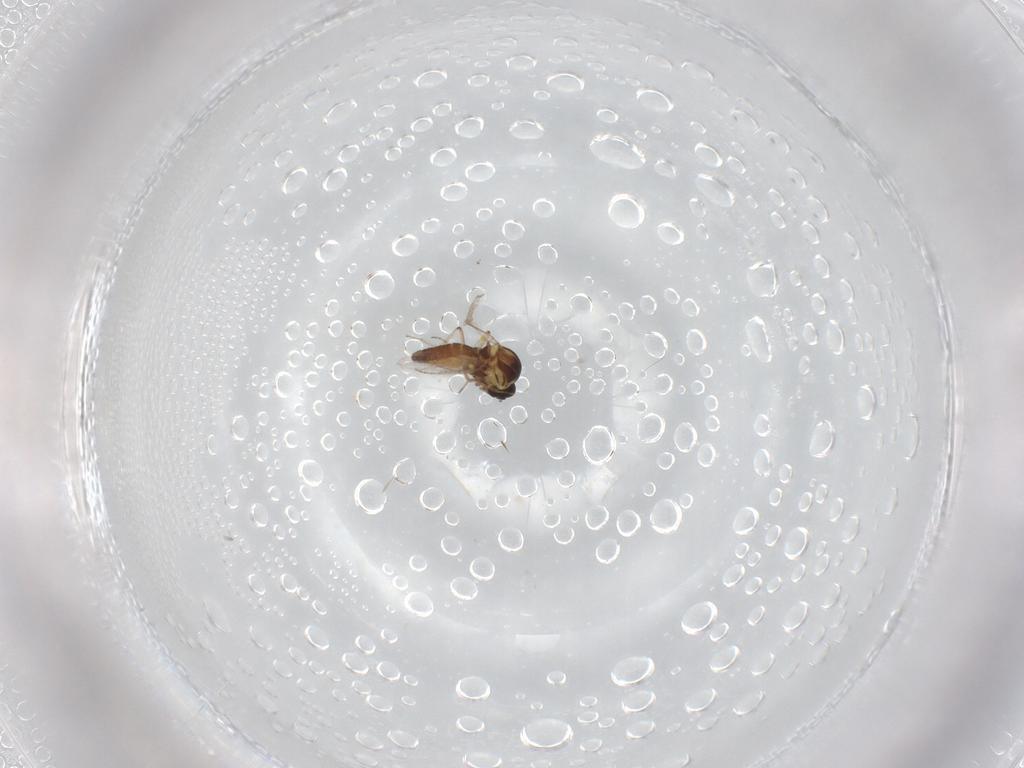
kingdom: Animalia
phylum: Arthropoda
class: Insecta
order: Diptera
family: Ceratopogonidae
